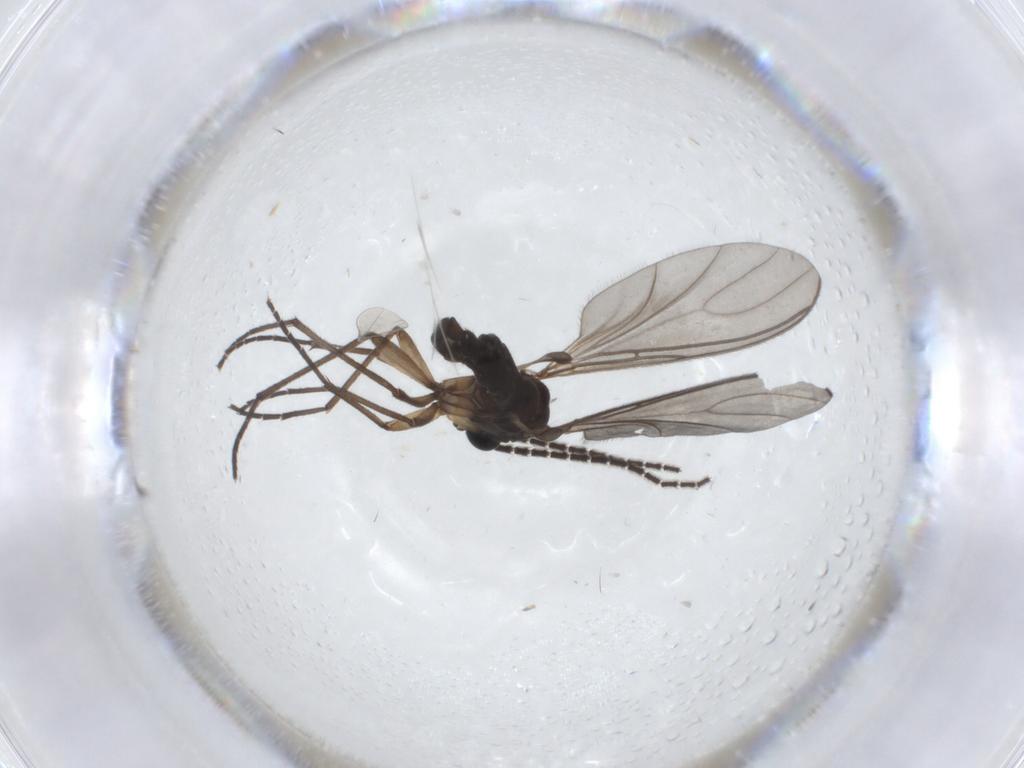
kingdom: Animalia
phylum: Arthropoda
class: Insecta
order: Diptera
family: Sciaridae
